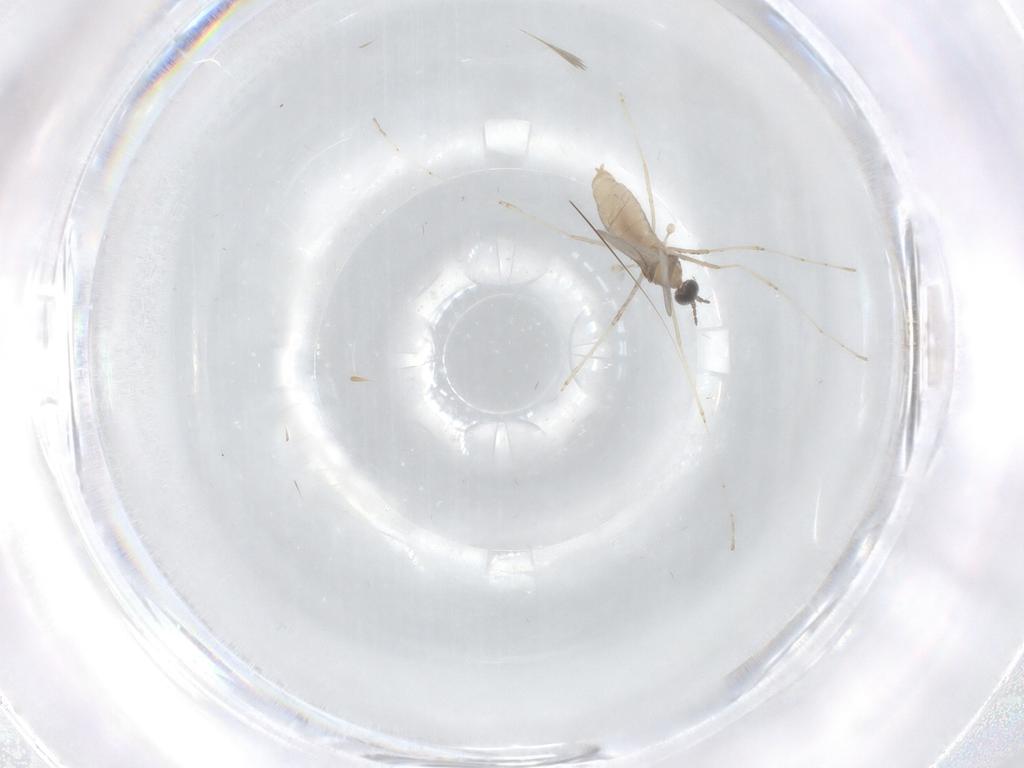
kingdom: Animalia
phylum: Arthropoda
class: Insecta
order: Diptera
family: Cecidomyiidae
